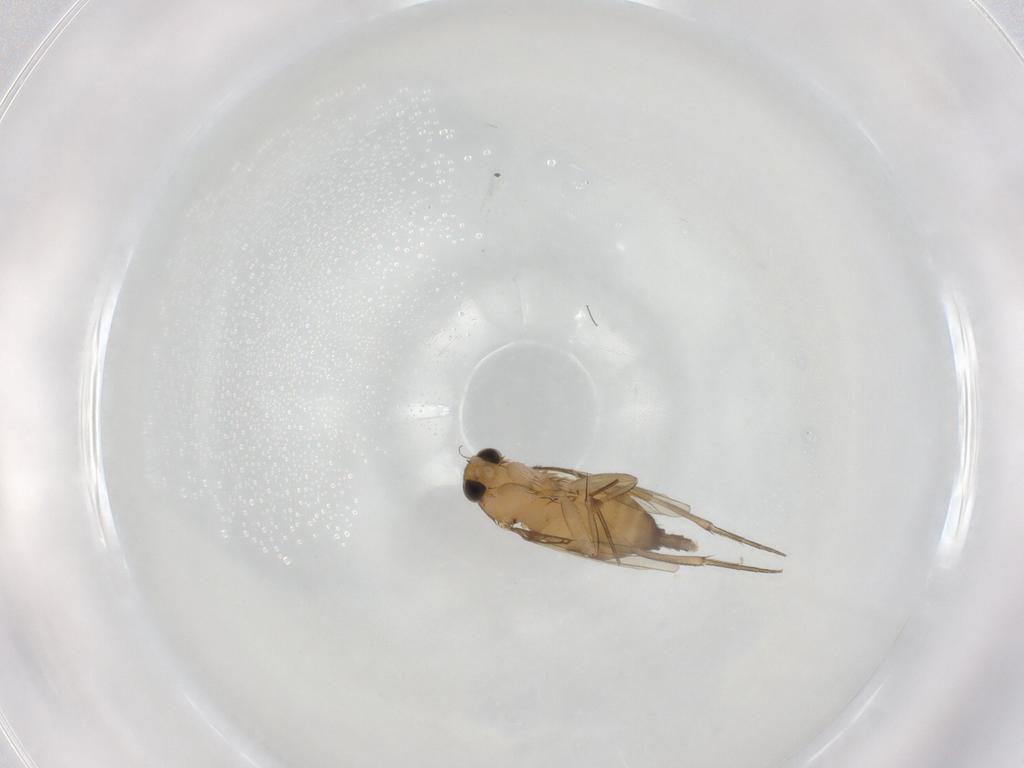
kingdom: Animalia
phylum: Arthropoda
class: Insecta
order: Diptera
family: Phoridae
